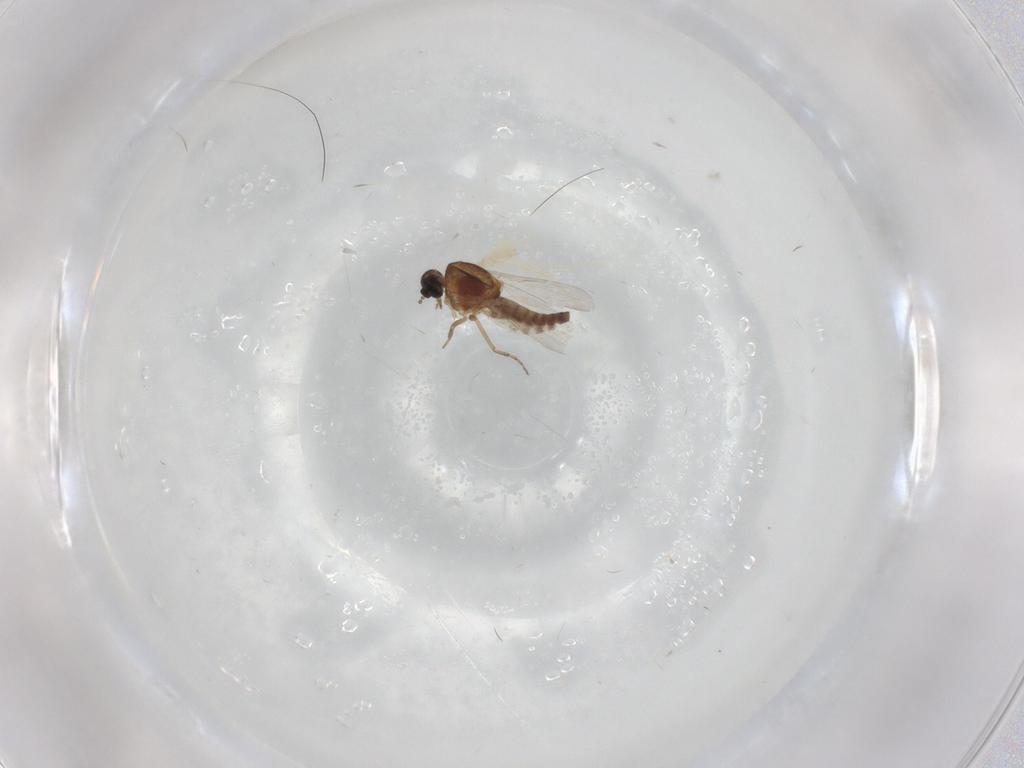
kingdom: Animalia
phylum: Arthropoda
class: Insecta
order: Diptera
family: Ceratopogonidae
